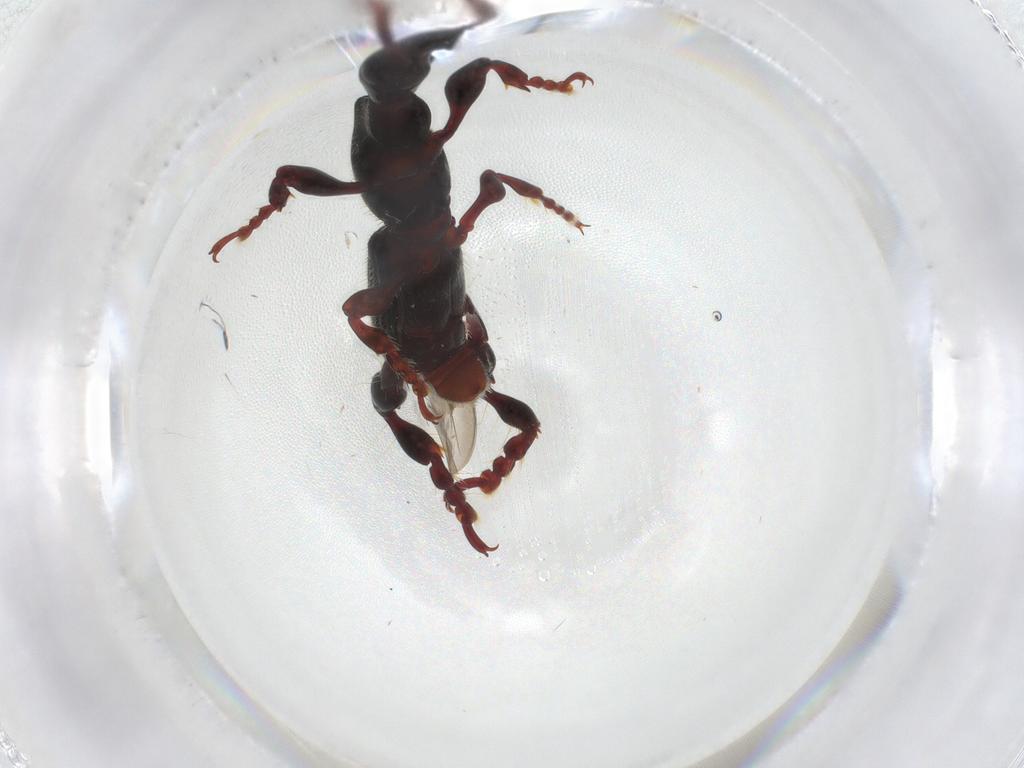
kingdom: Animalia
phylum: Arthropoda
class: Insecta
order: Coleoptera
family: Brentidae
